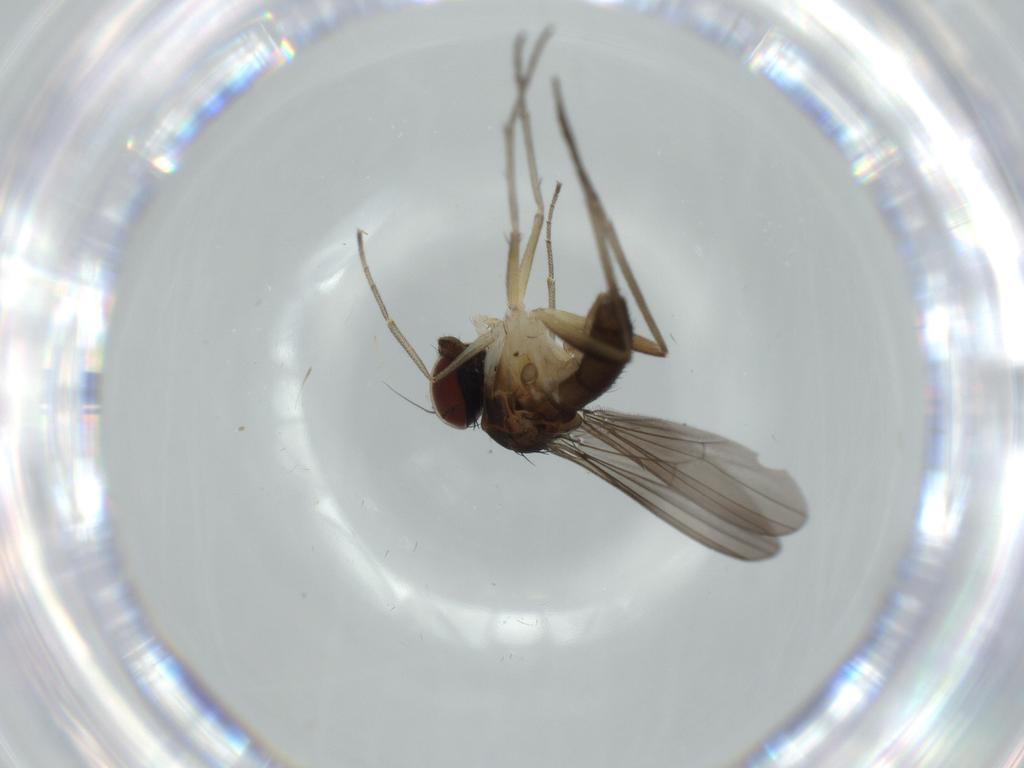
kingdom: Animalia
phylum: Arthropoda
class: Insecta
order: Diptera
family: Dolichopodidae
